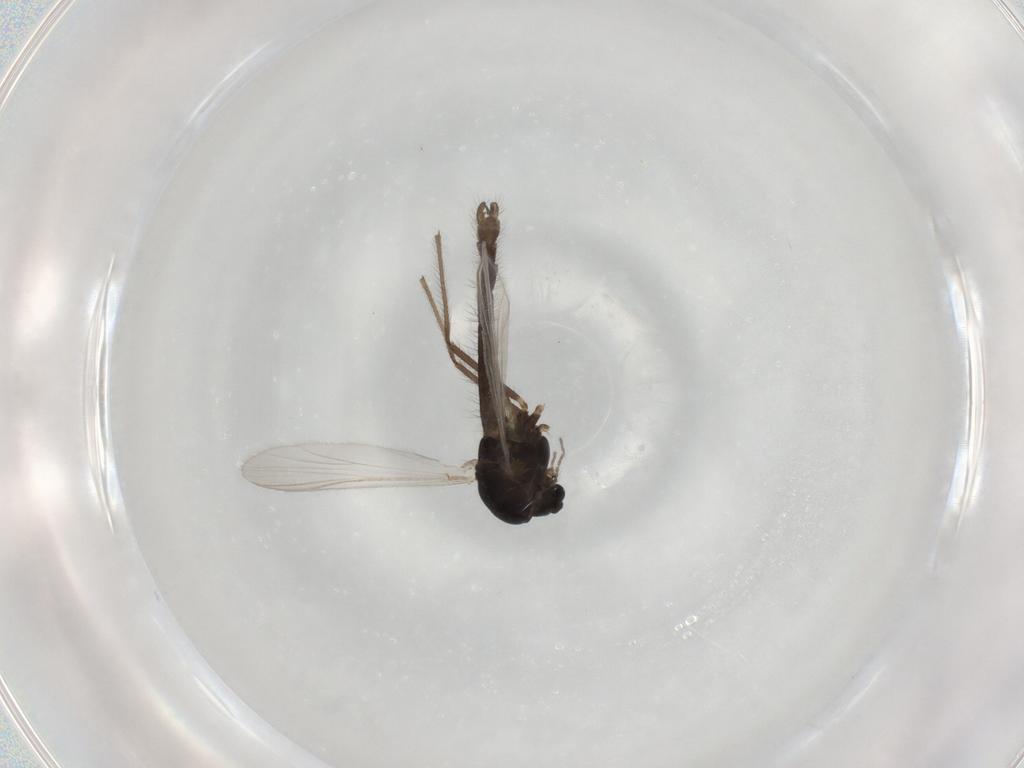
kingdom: Animalia
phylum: Arthropoda
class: Insecta
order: Diptera
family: Chironomidae
